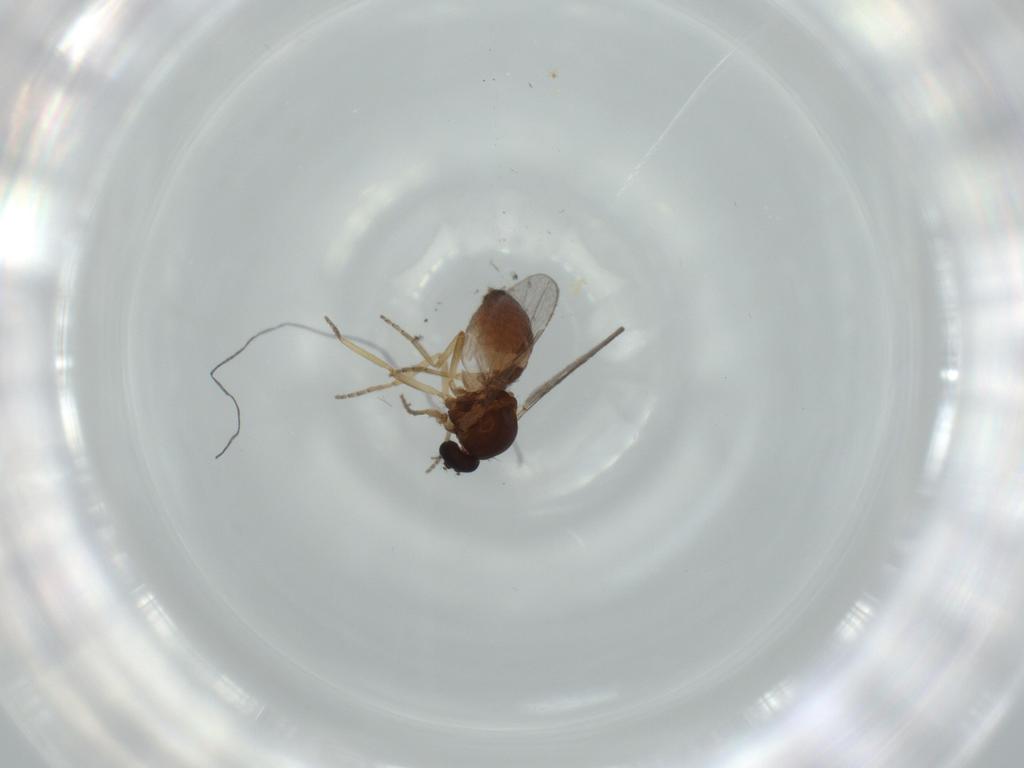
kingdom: Animalia
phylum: Arthropoda
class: Insecta
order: Diptera
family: Ceratopogonidae
